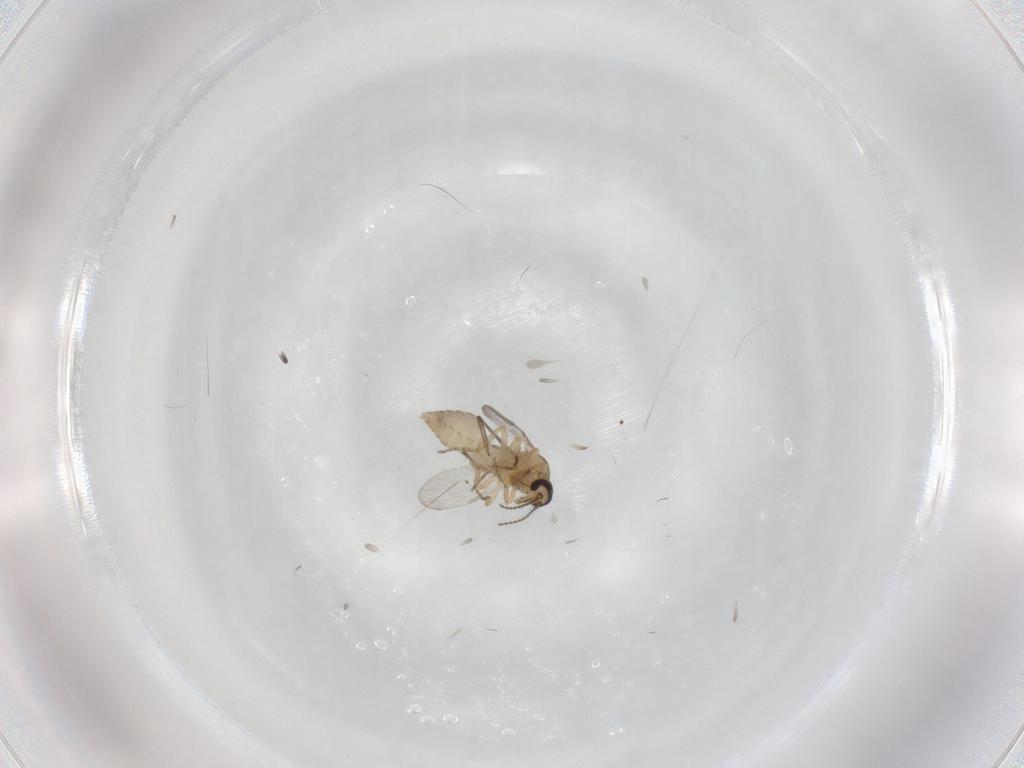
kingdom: Animalia
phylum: Arthropoda
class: Insecta
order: Diptera
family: Ceratopogonidae
